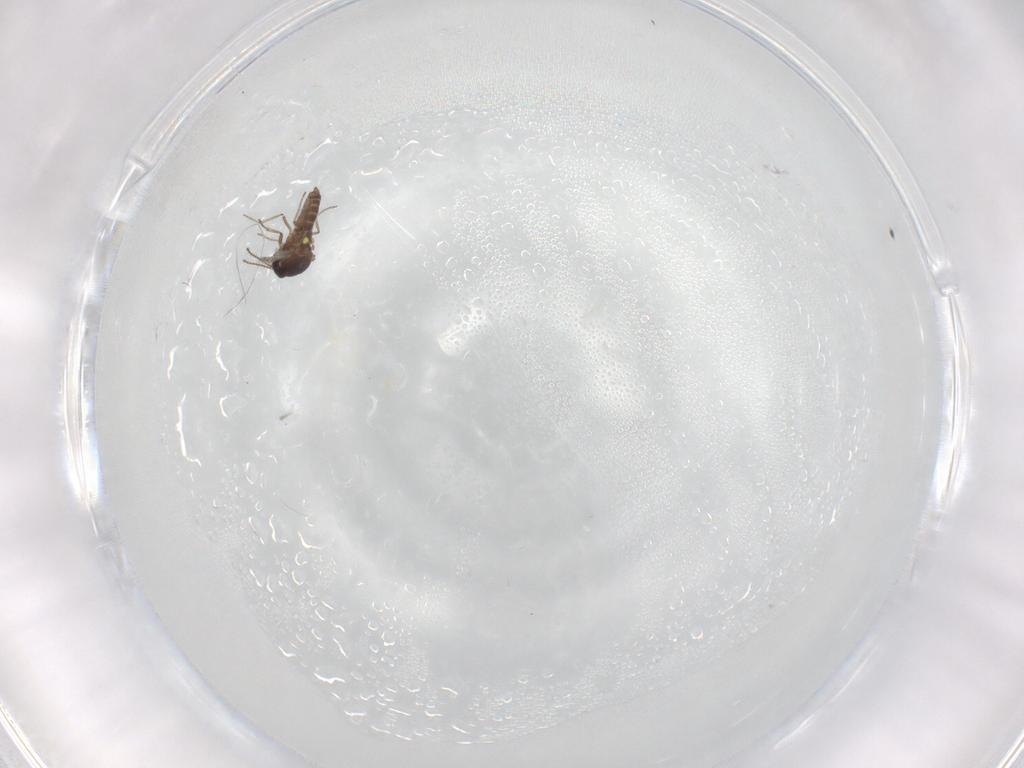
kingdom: Animalia
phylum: Arthropoda
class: Insecta
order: Diptera
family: Ceratopogonidae
